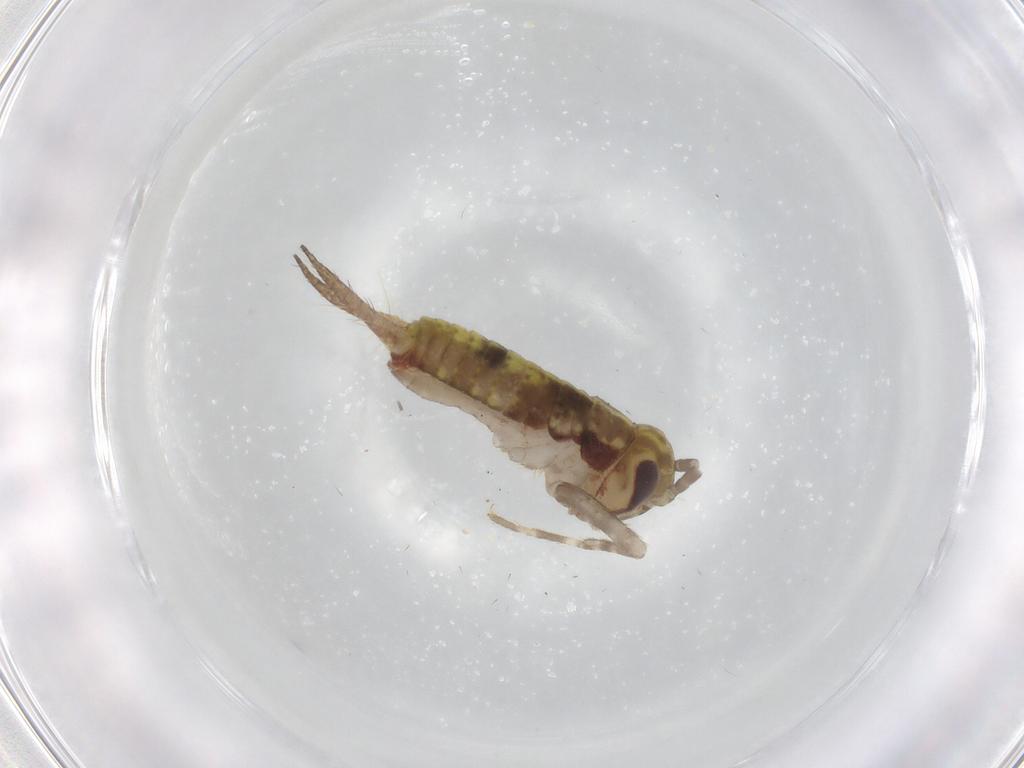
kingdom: Animalia
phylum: Arthropoda
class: Insecta
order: Orthoptera
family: Gryllidae
